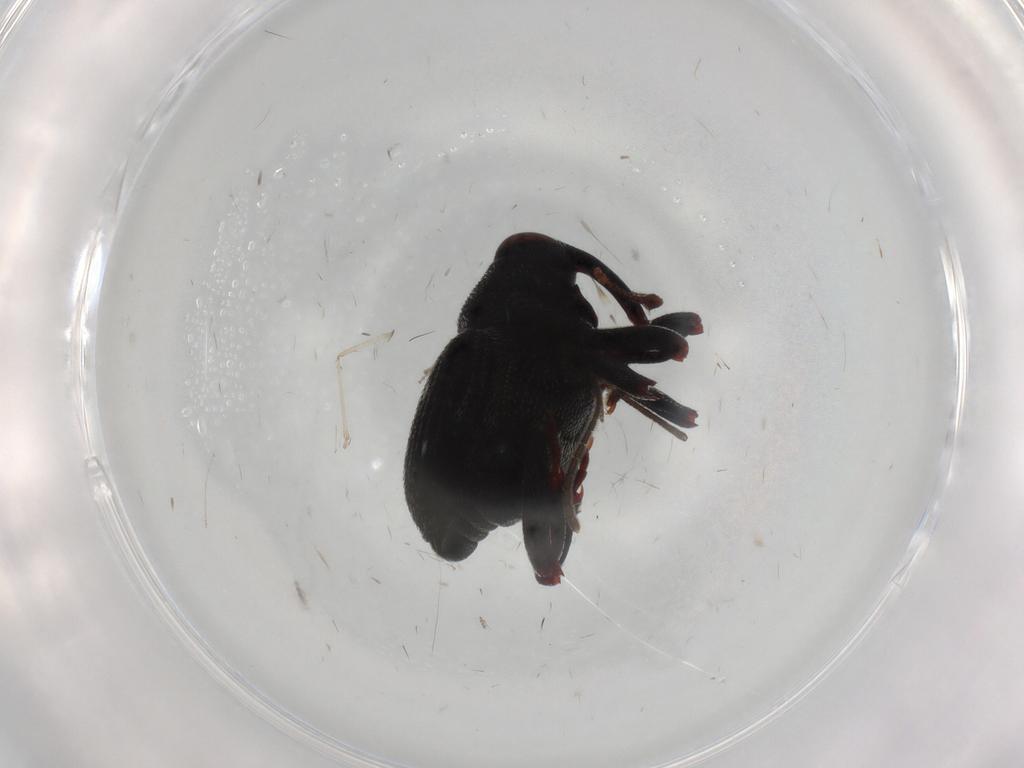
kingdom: Animalia
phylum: Arthropoda
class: Insecta
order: Coleoptera
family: Curculionidae
